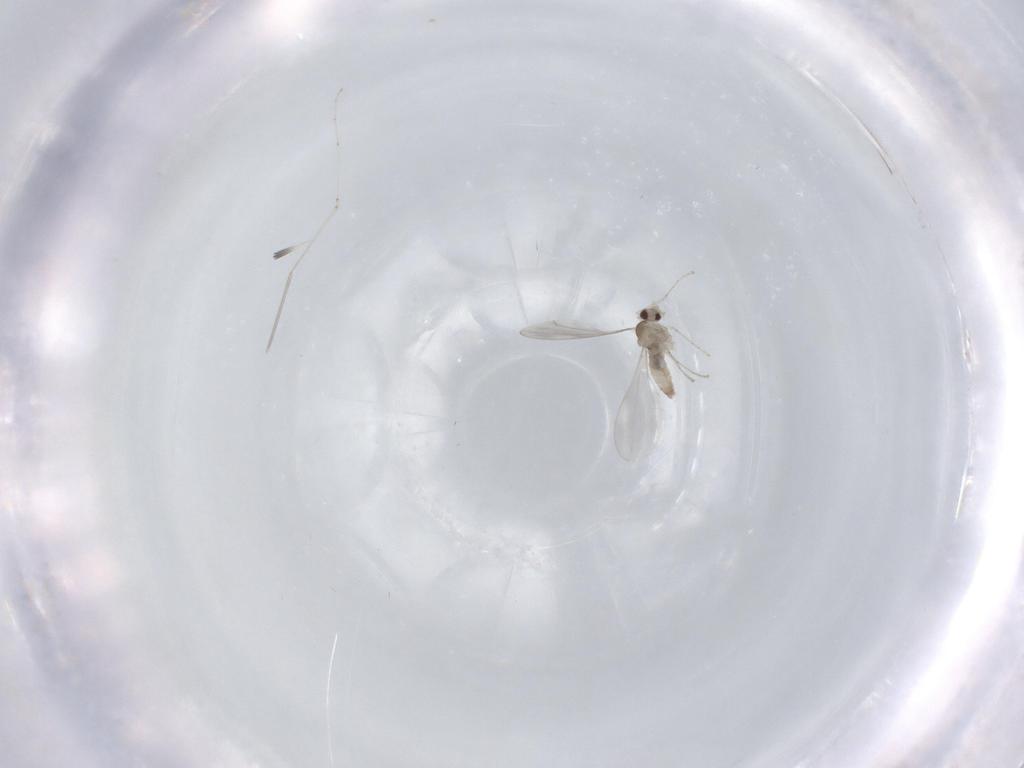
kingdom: Animalia
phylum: Arthropoda
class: Insecta
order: Diptera
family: Cecidomyiidae
